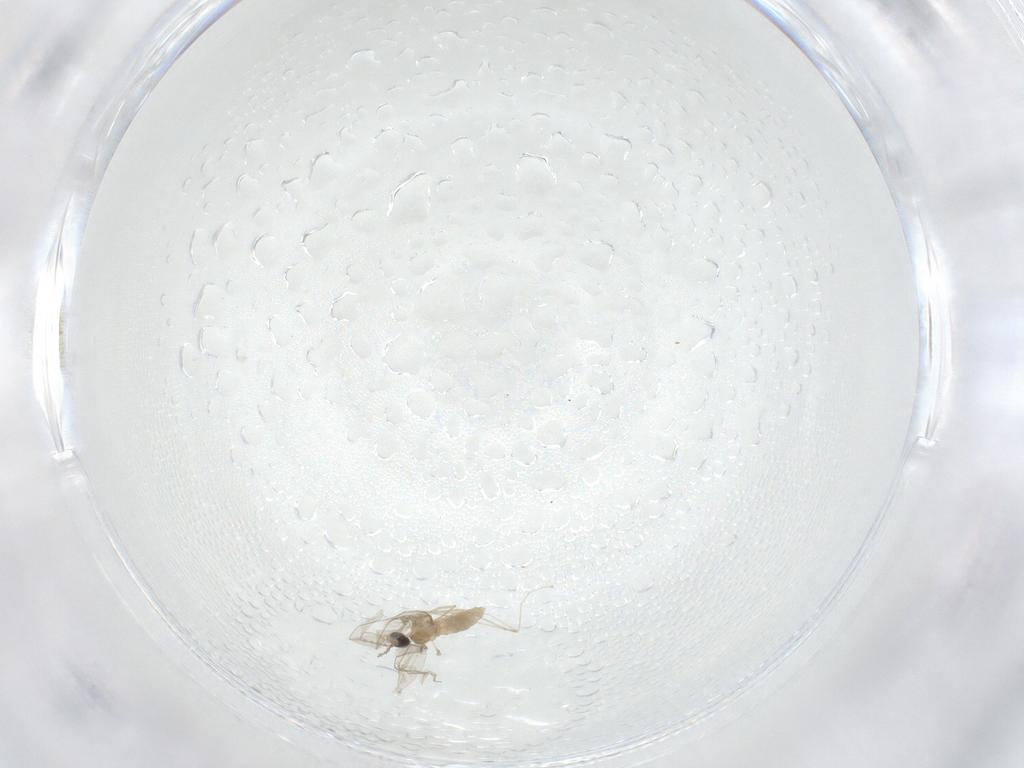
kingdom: Animalia
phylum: Arthropoda
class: Insecta
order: Diptera
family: Cecidomyiidae
